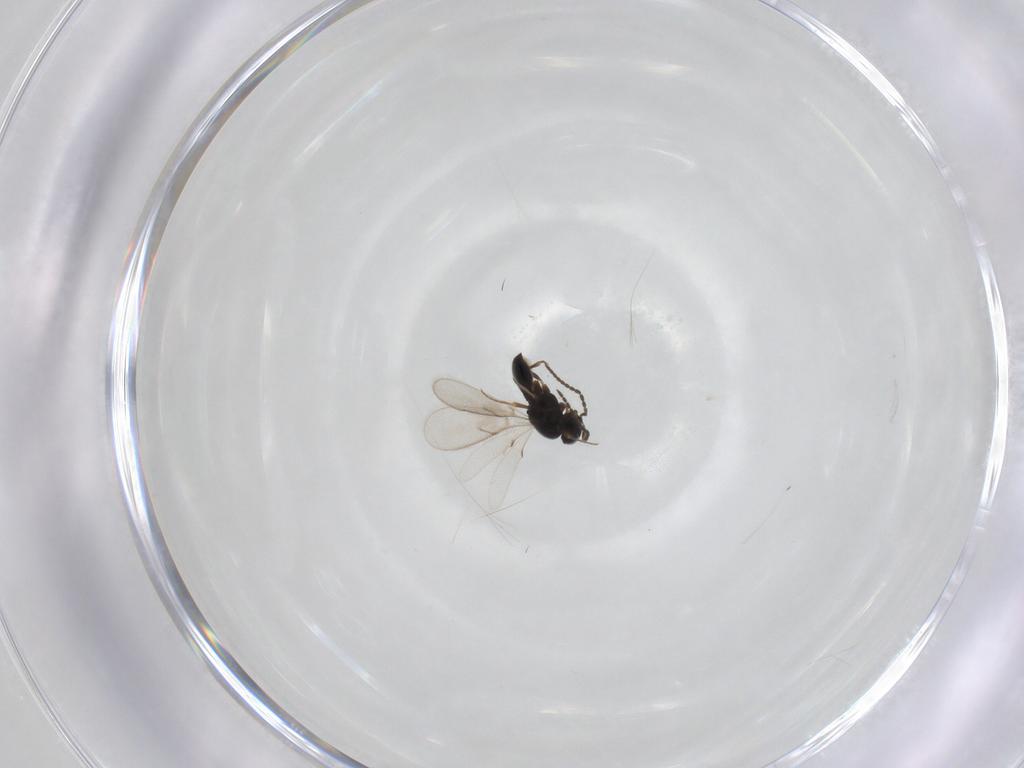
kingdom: Animalia
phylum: Arthropoda
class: Insecta
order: Hymenoptera
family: Scelionidae
